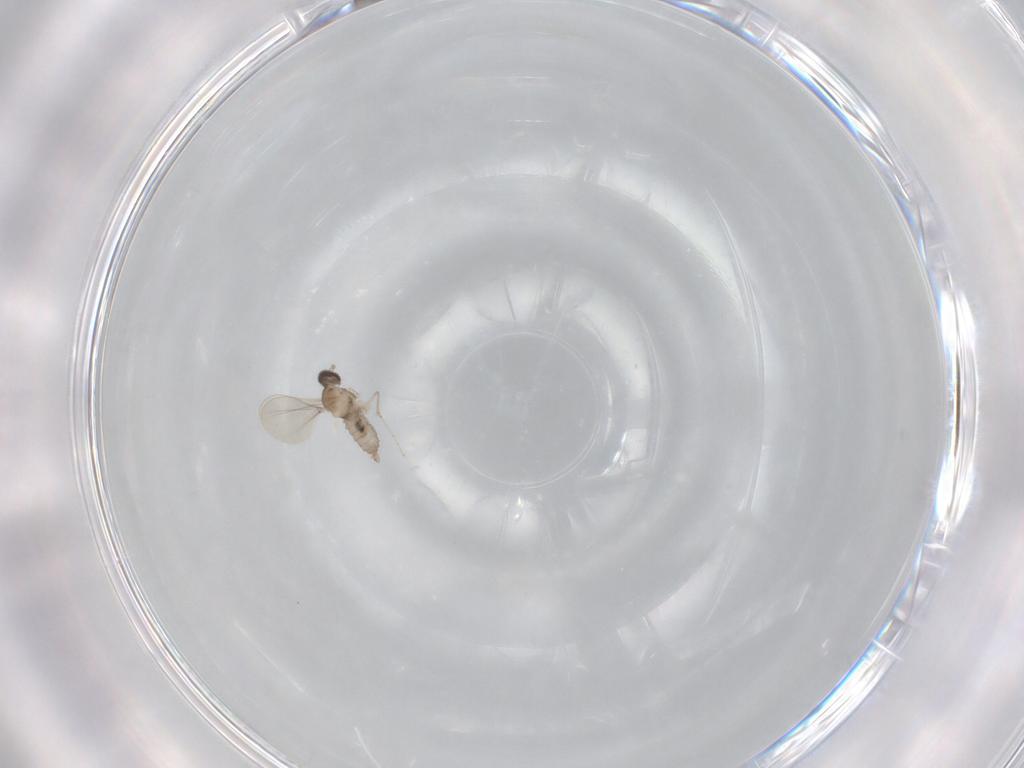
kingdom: Animalia
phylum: Arthropoda
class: Insecta
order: Diptera
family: Cecidomyiidae
